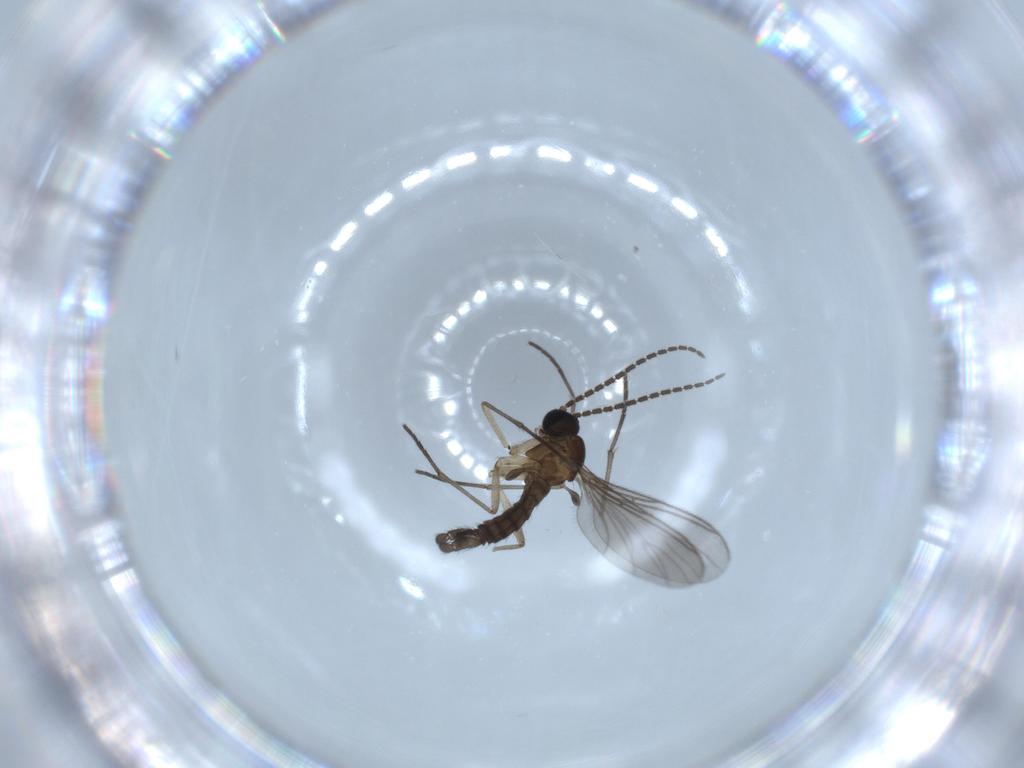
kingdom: Animalia
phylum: Arthropoda
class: Insecta
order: Diptera
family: Sciaridae
